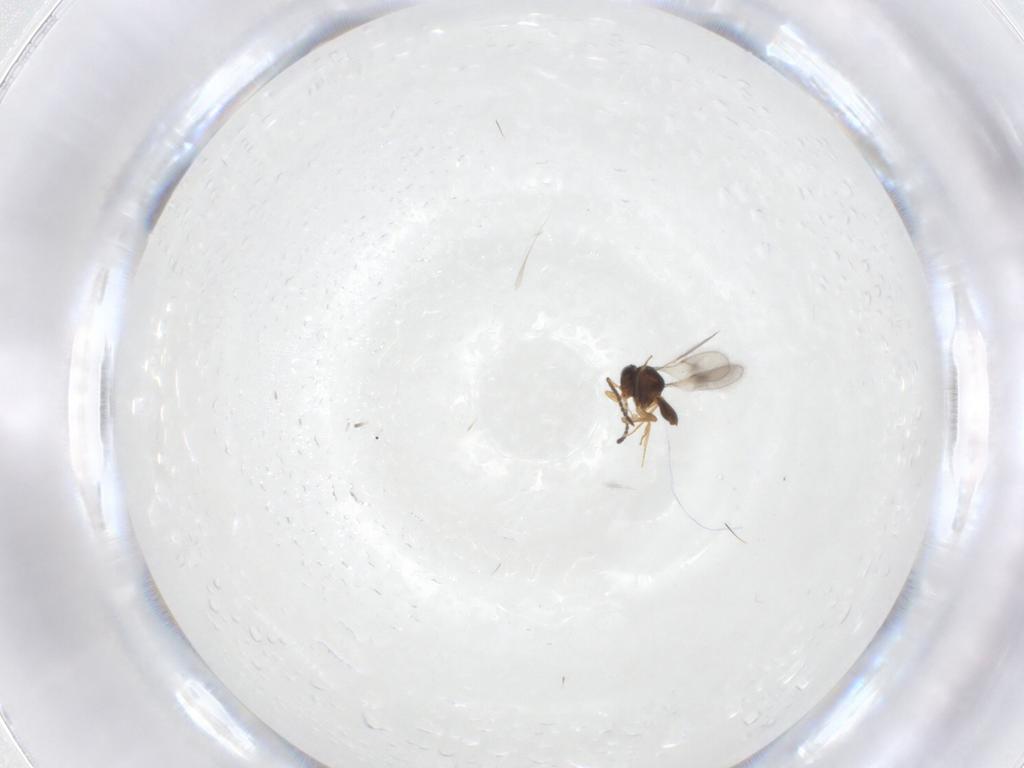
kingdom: Animalia
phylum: Arthropoda
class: Insecta
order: Hymenoptera
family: Scelionidae
